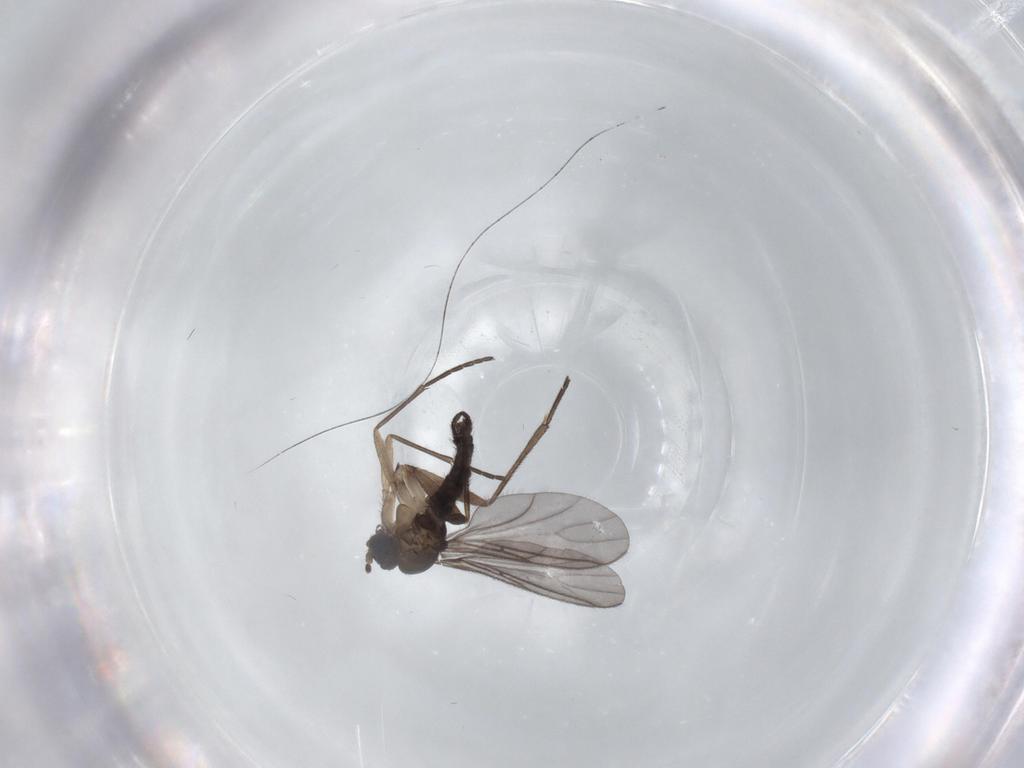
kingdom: Animalia
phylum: Arthropoda
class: Insecta
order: Diptera
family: Sciaridae
